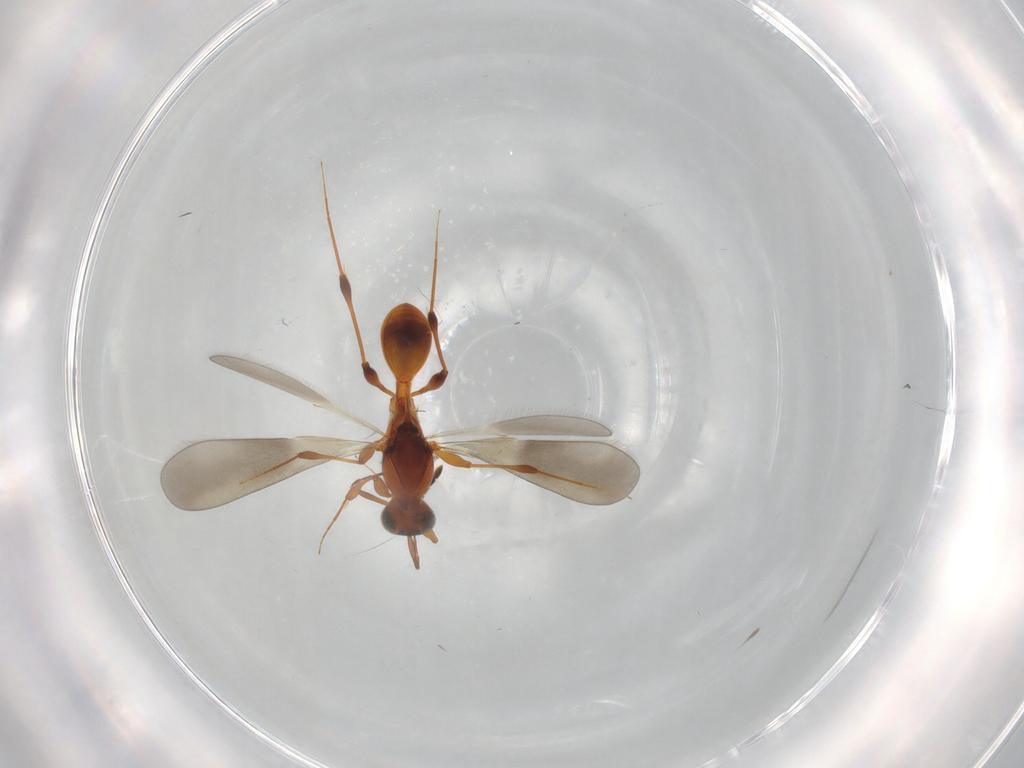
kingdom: Animalia
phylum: Arthropoda
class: Insecta
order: Hymenoptera
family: Platygastridae
